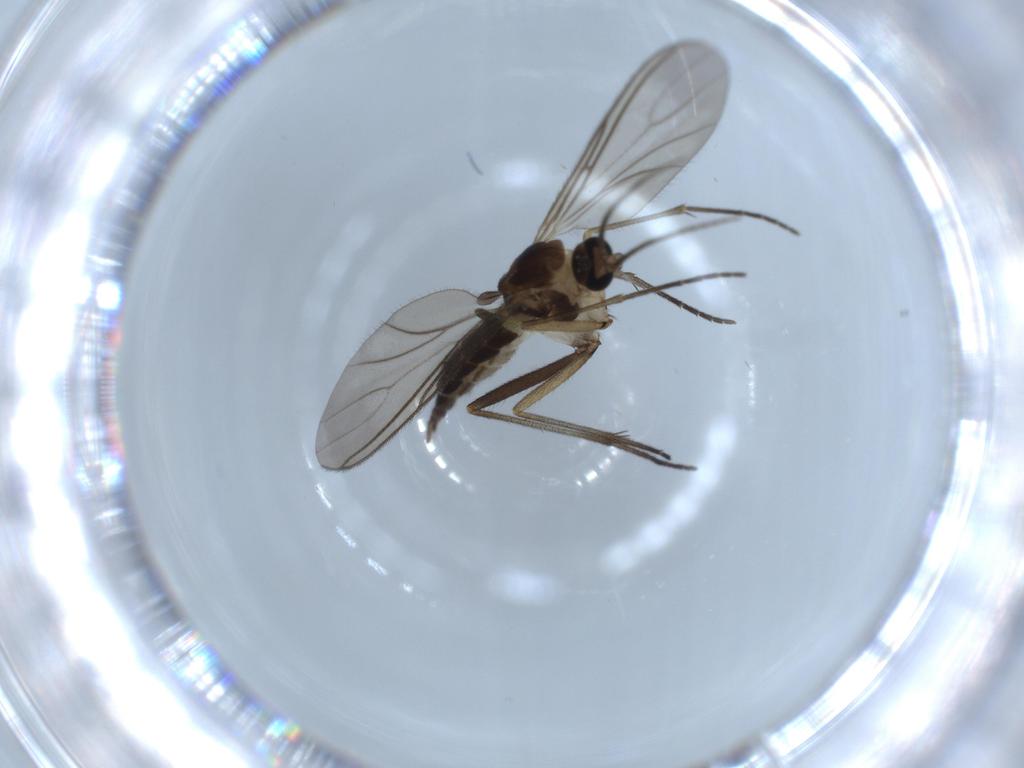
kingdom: Animalia
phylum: Arthropoda
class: Insecta
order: Diptera
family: Sciaridae
